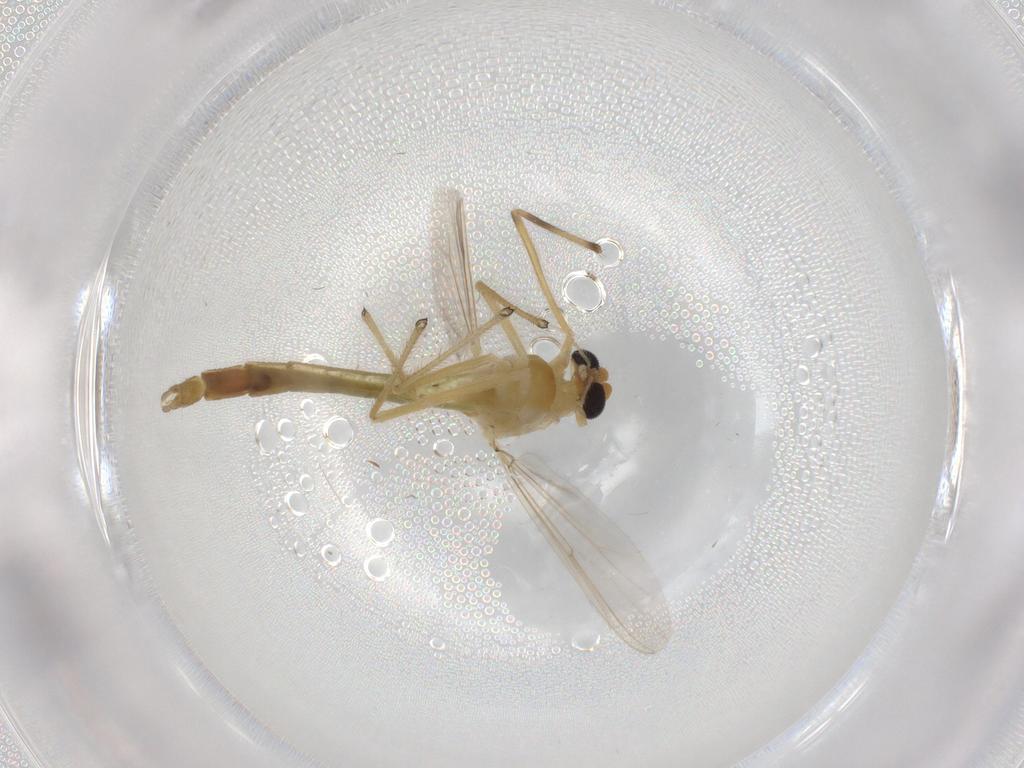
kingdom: Animalia
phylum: Arthropoda
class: Insecta
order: Diptera
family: Bibionidae
